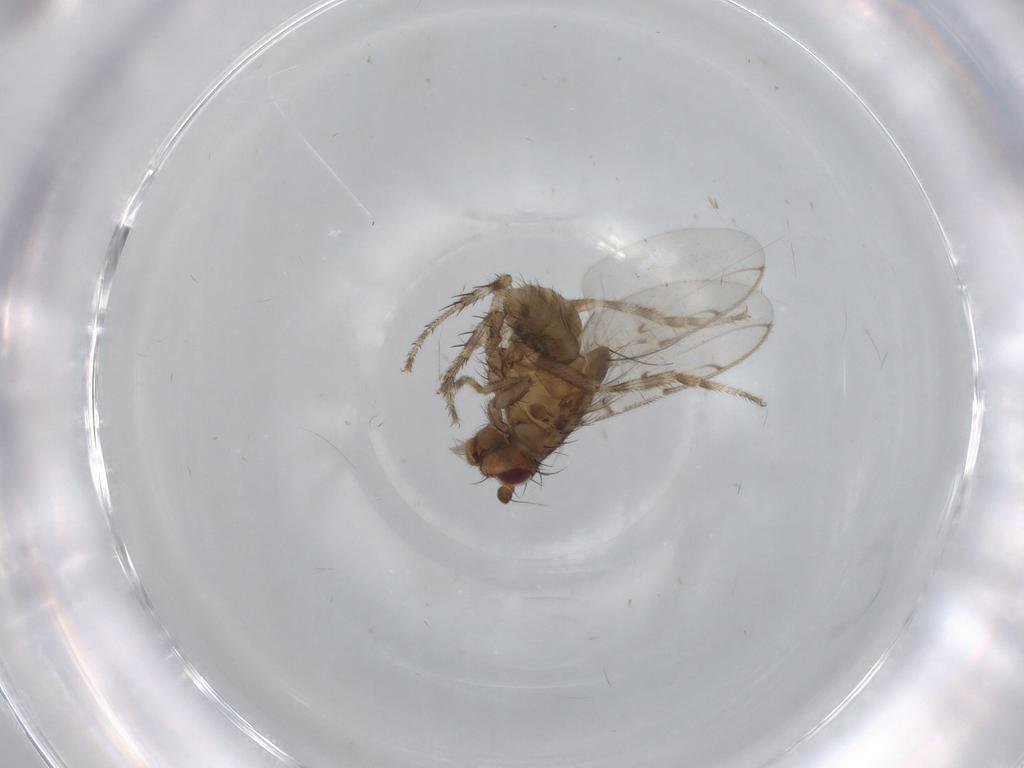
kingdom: Animalia
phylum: Arthropoda
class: Insecta
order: Diptera
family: Sphaeroceridae
